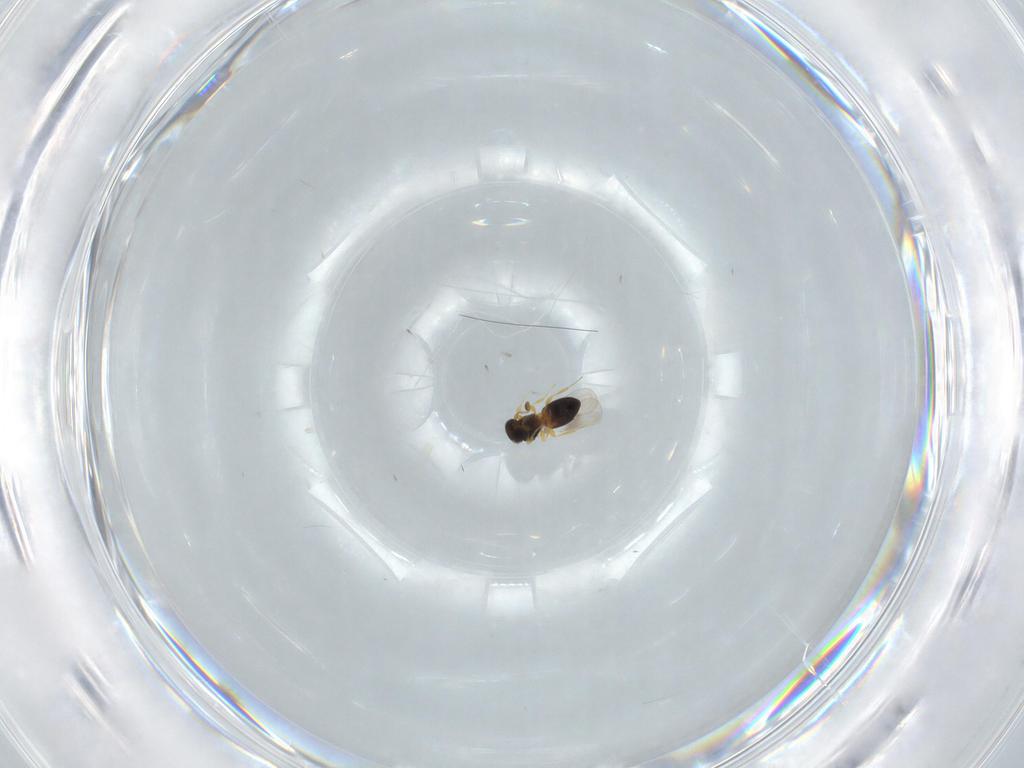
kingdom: Animalia
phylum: Arthropoda
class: Insecta
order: Hymenoptera
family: Platygastridae
